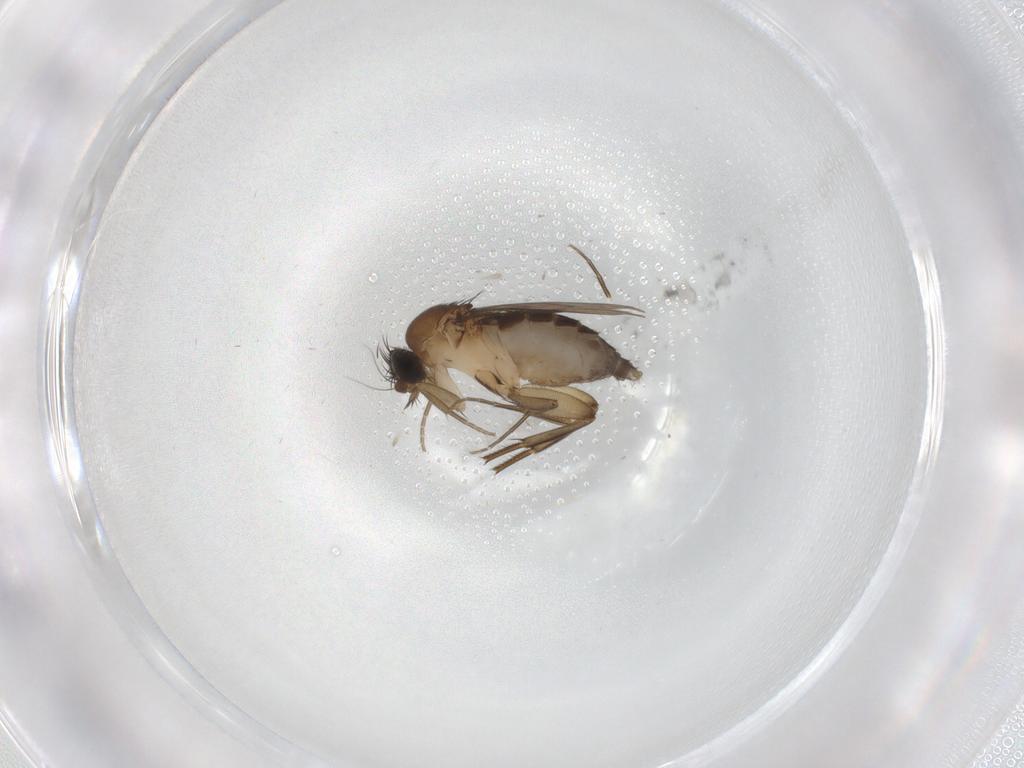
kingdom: Animalia
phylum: Arthropoda
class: Insecta
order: Diptera
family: Phoridae
